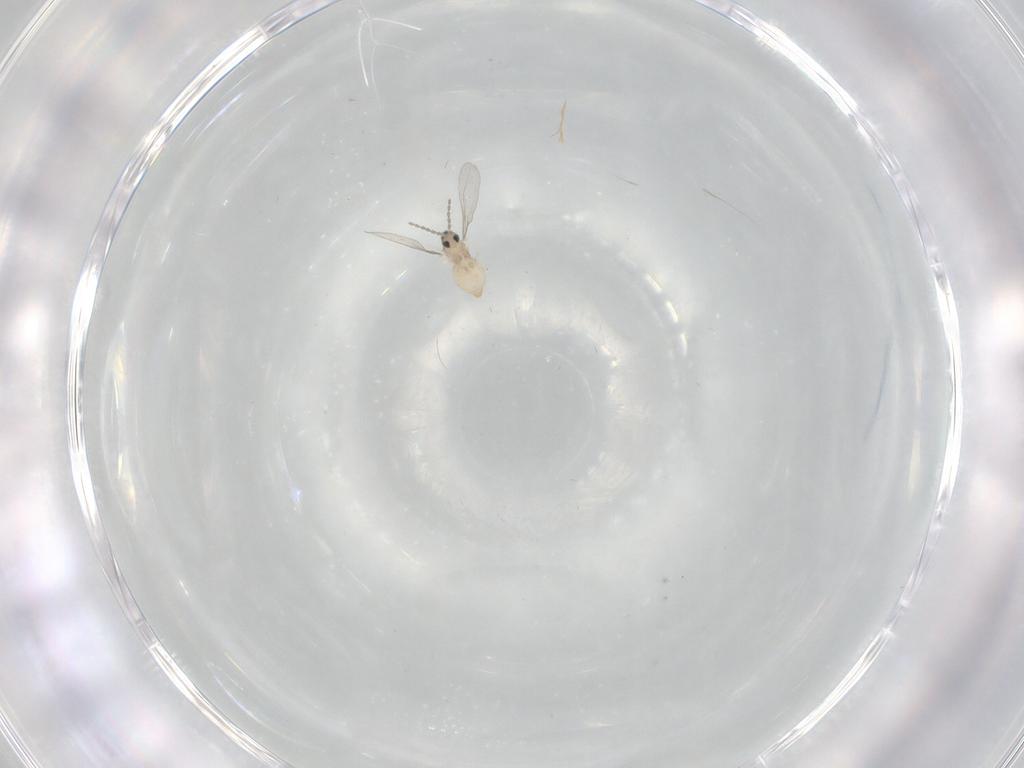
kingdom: Animalia
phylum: Arthropoda
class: Insecta
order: Diptera
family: Cecidomyiidae
